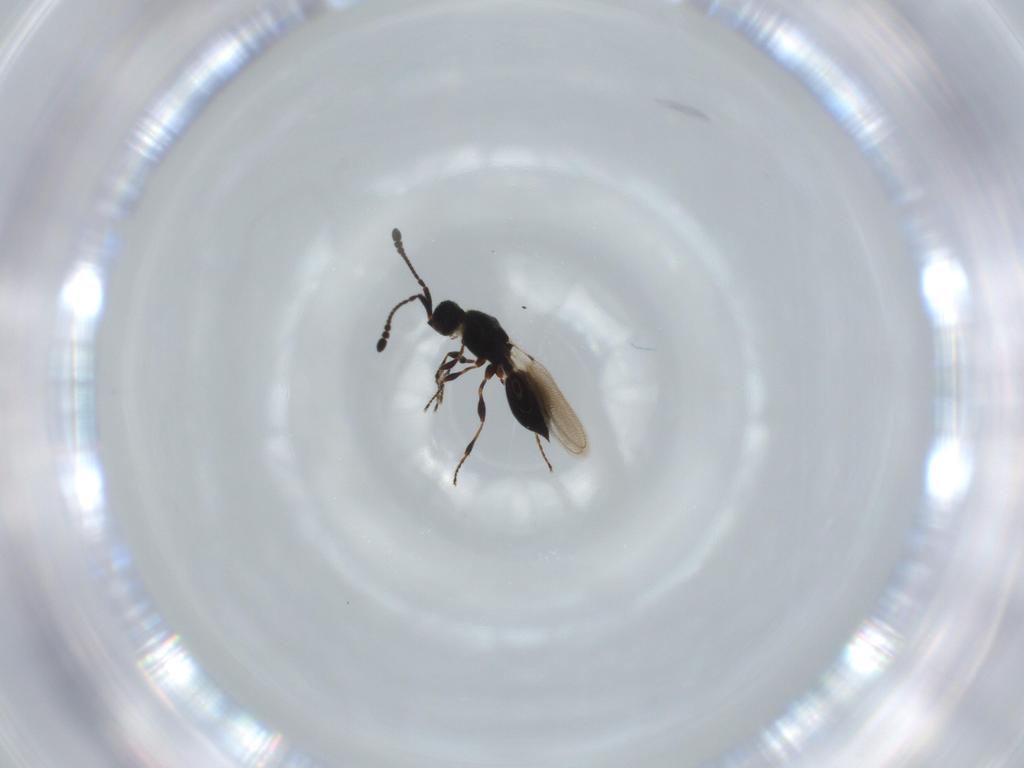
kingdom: Animalia
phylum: Arthropoda
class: Insecta
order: Hymenoptera
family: Diapriidae
